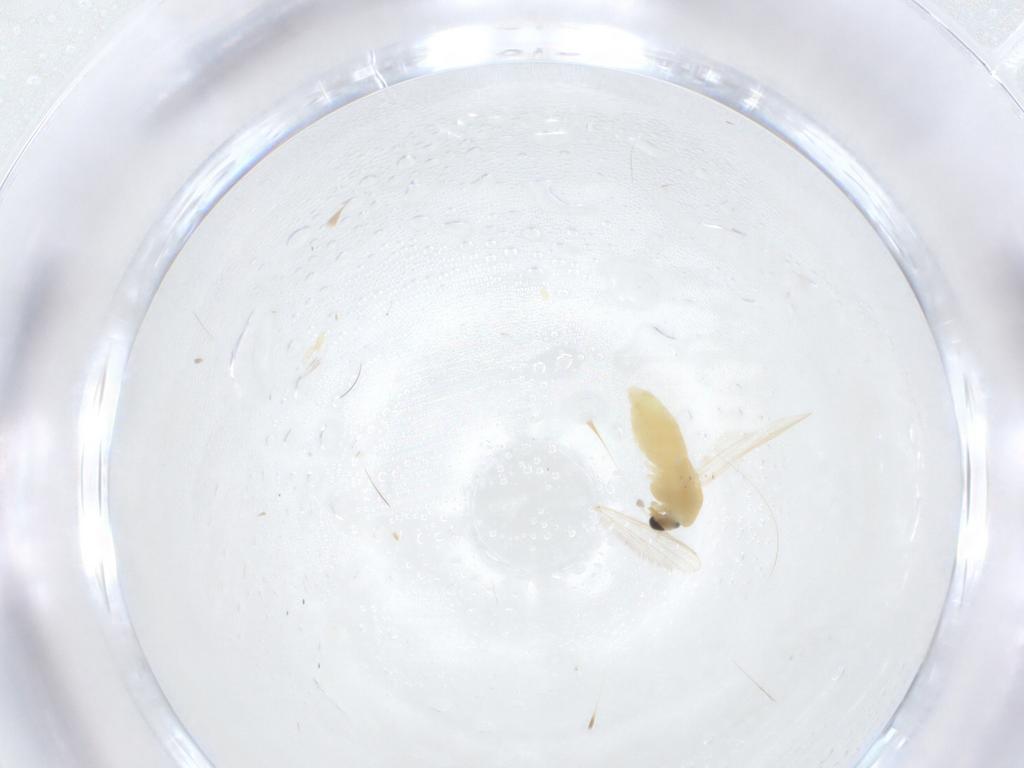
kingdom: Animalia
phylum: Arthropoda
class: Insecta
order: Diptera
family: Chironomidae
